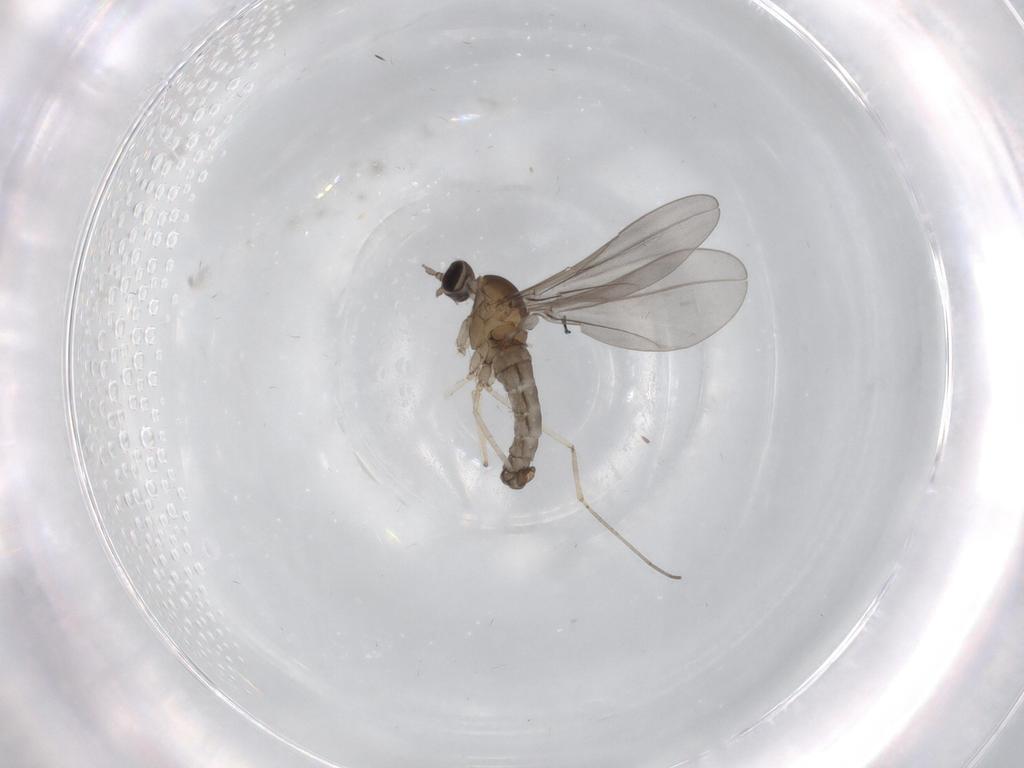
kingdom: Animalia
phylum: Arthropoda
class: Insecta
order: Diptera
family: Cecidomyiidae
